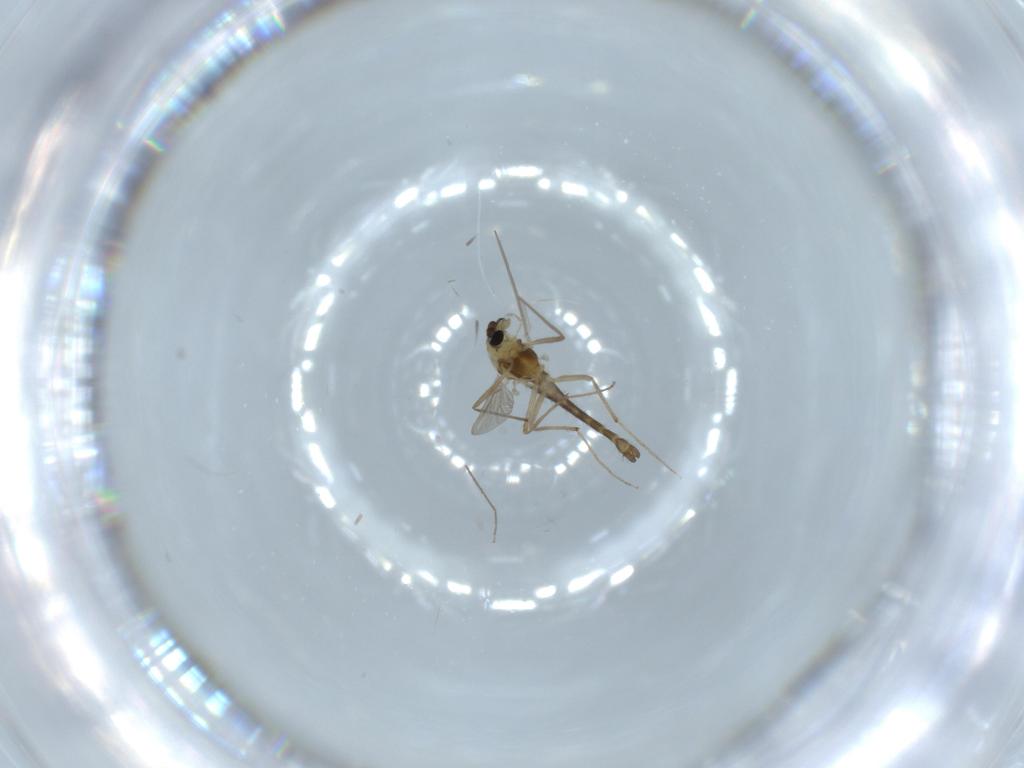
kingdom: Animalia
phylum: Arthropoda
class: Insecta
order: Diptera
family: Chironomidae
